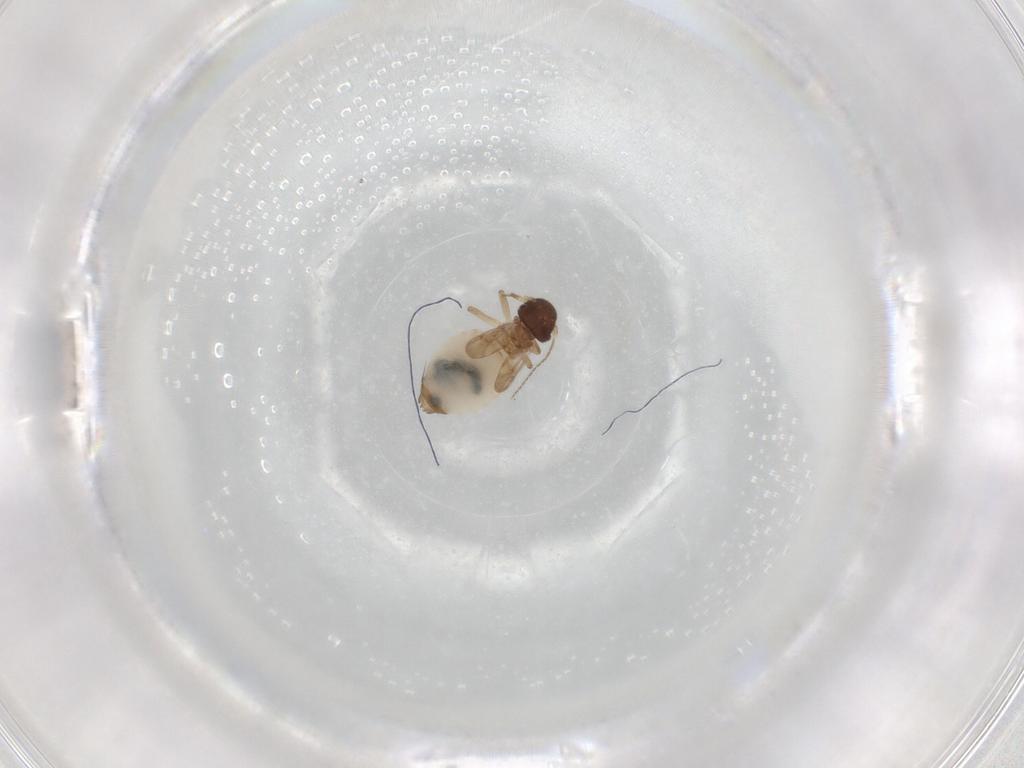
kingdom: Animalia
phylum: Arthropoda
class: Insecta
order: Psocodea
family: Peripsocidae
